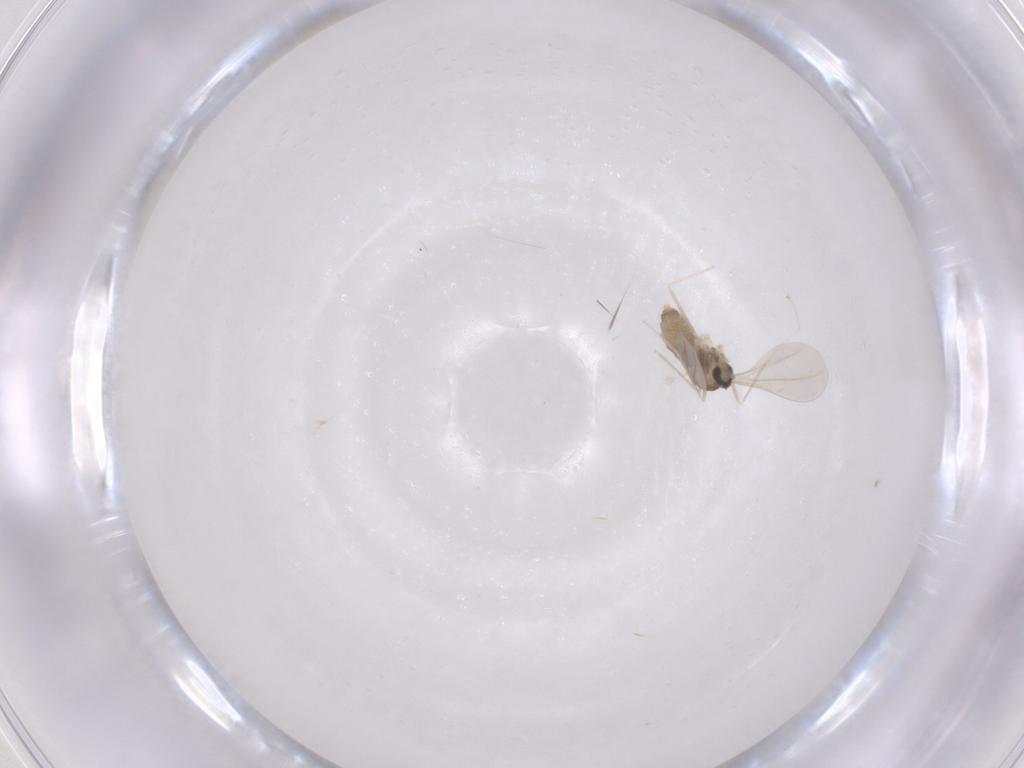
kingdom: Animalia
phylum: Arthropoda
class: Insecta
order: Diptera
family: Cecidomyiidae
